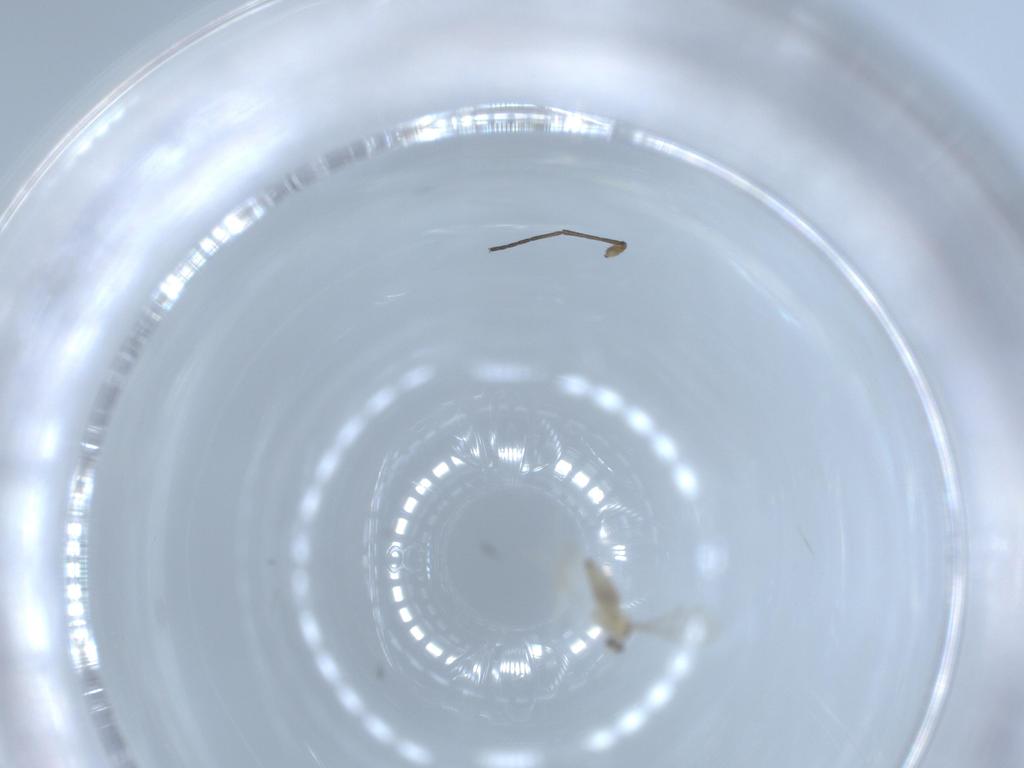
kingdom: Animalia
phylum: Arthropoda
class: Insecta
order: Diptera
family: Cecidomyiidae
